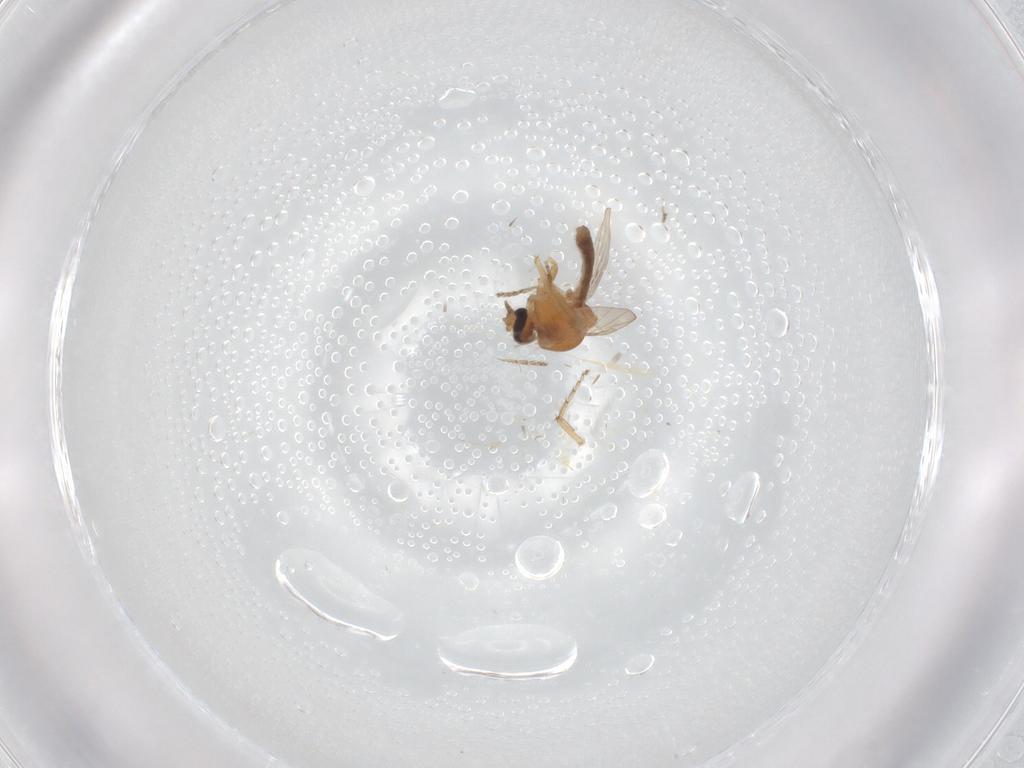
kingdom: Animalia
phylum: Arthropoda
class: Insecta
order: Diptera
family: Ceratopogonidae
